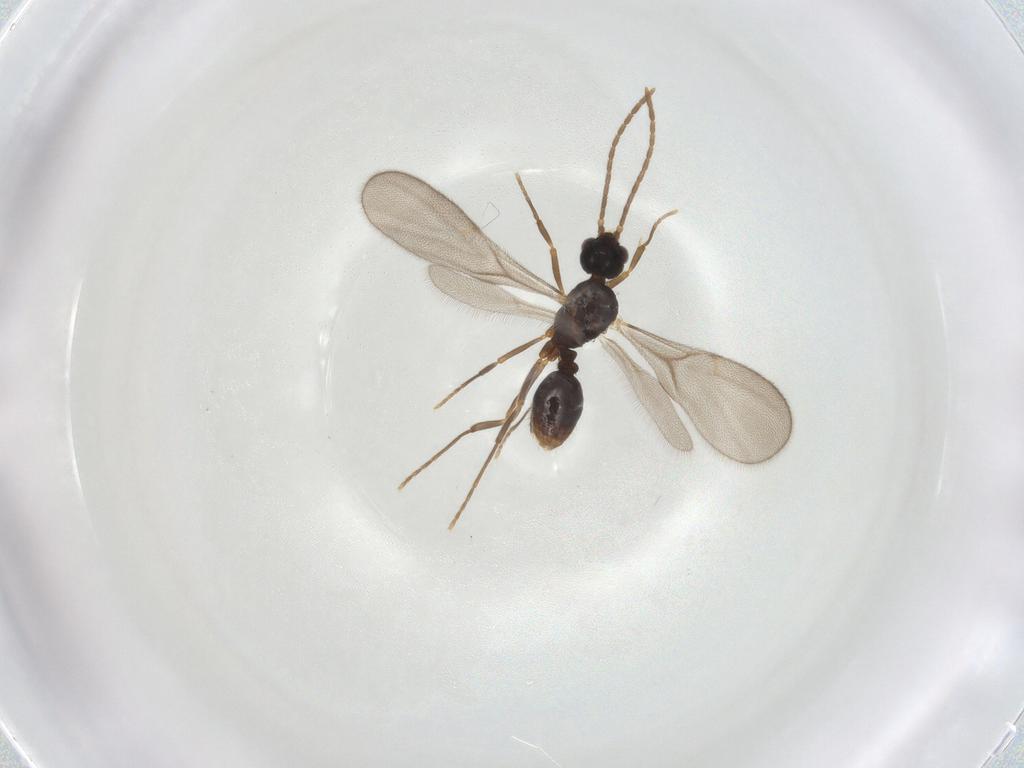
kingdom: Animalia
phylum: Arthropoda
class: Insecta
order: Hymenoptera
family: Formicidae
